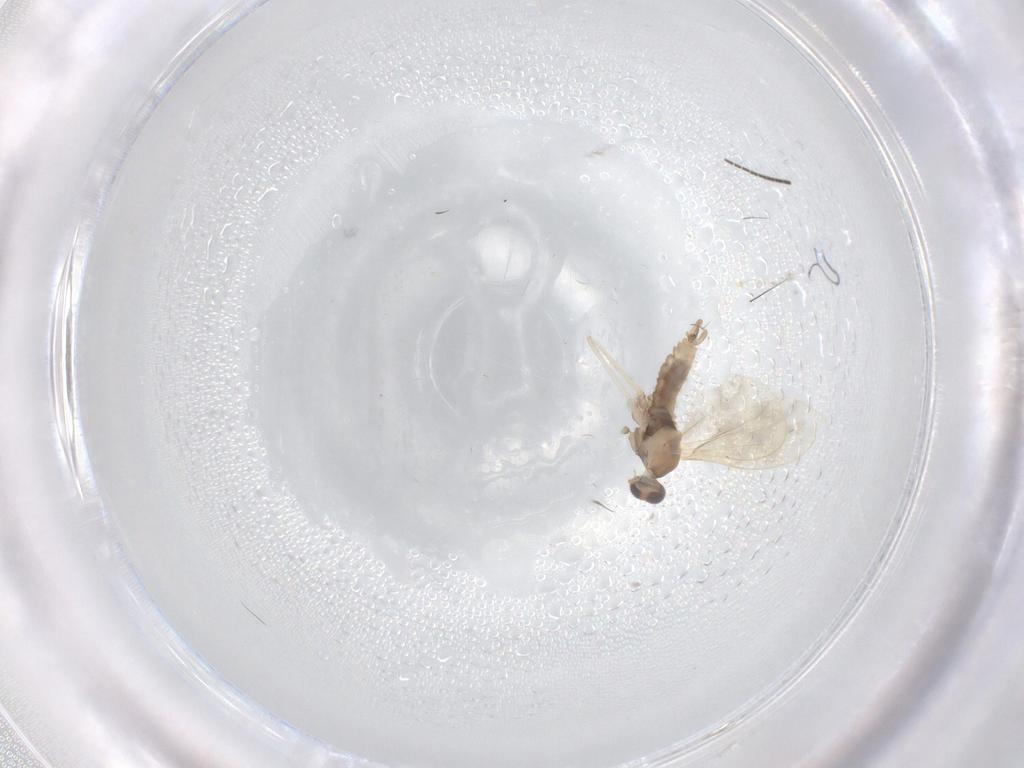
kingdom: Animalia
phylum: Arthropoda
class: Insecta
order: Diptera
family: Cecidomyiidae
